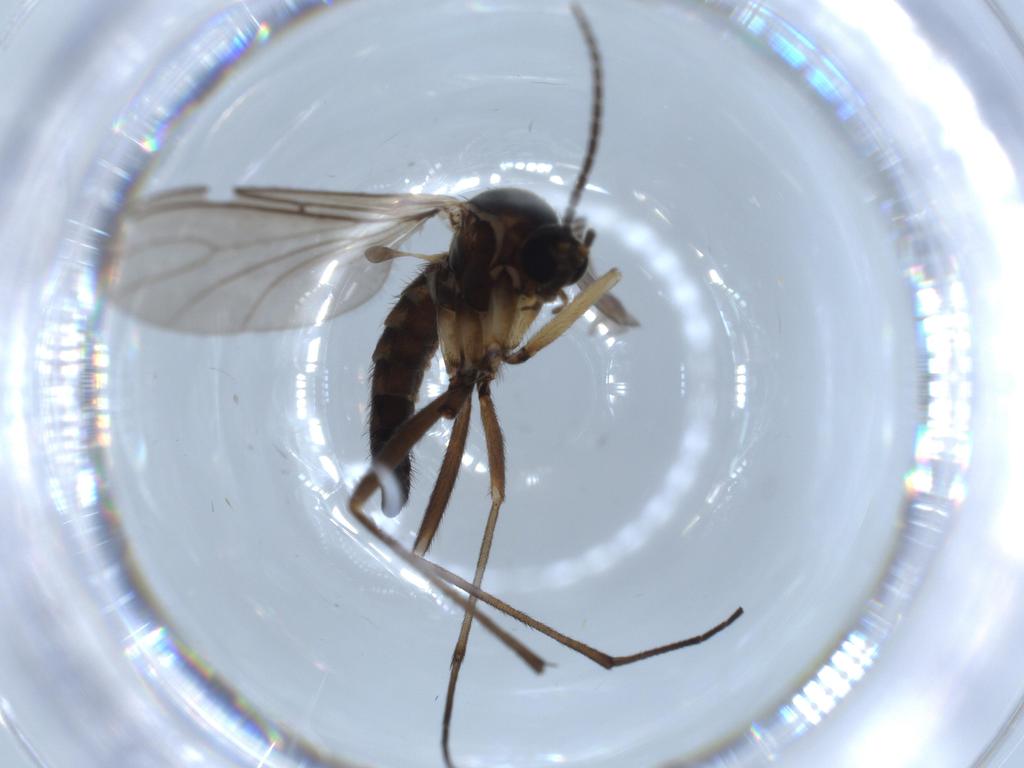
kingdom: Animalia
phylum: Arthropoda
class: Insecta
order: Diptera
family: Sciaridae
